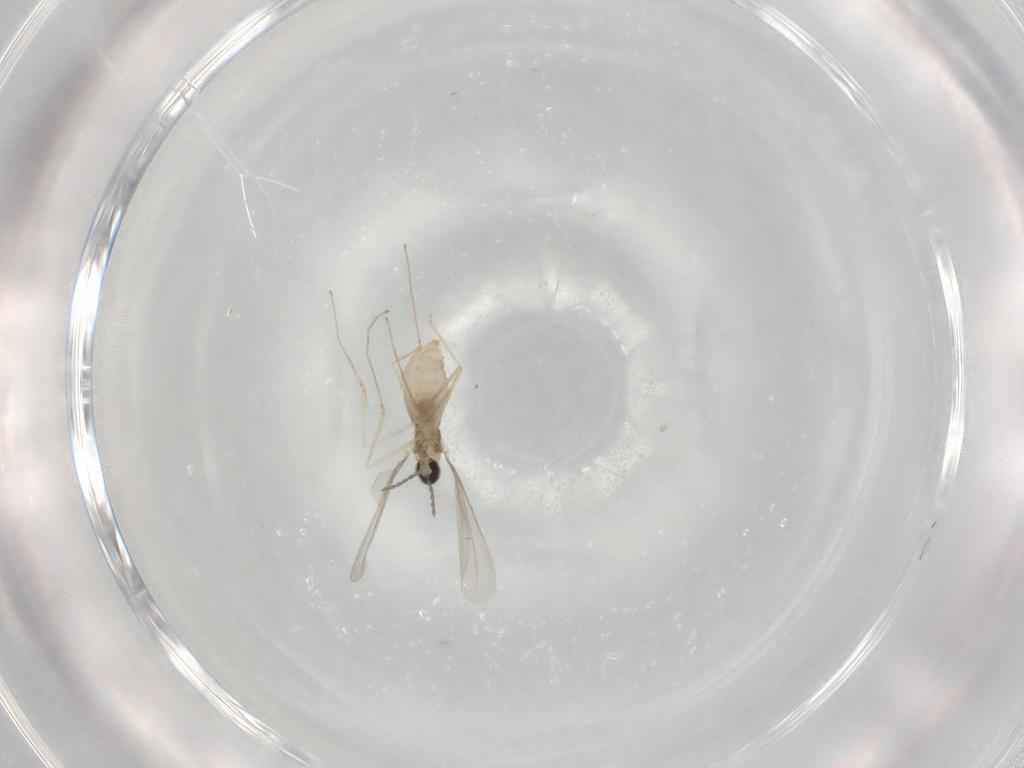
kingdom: Animalia
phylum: Arthropoda
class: Insecta
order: Diptera
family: Cecidomyiidae
